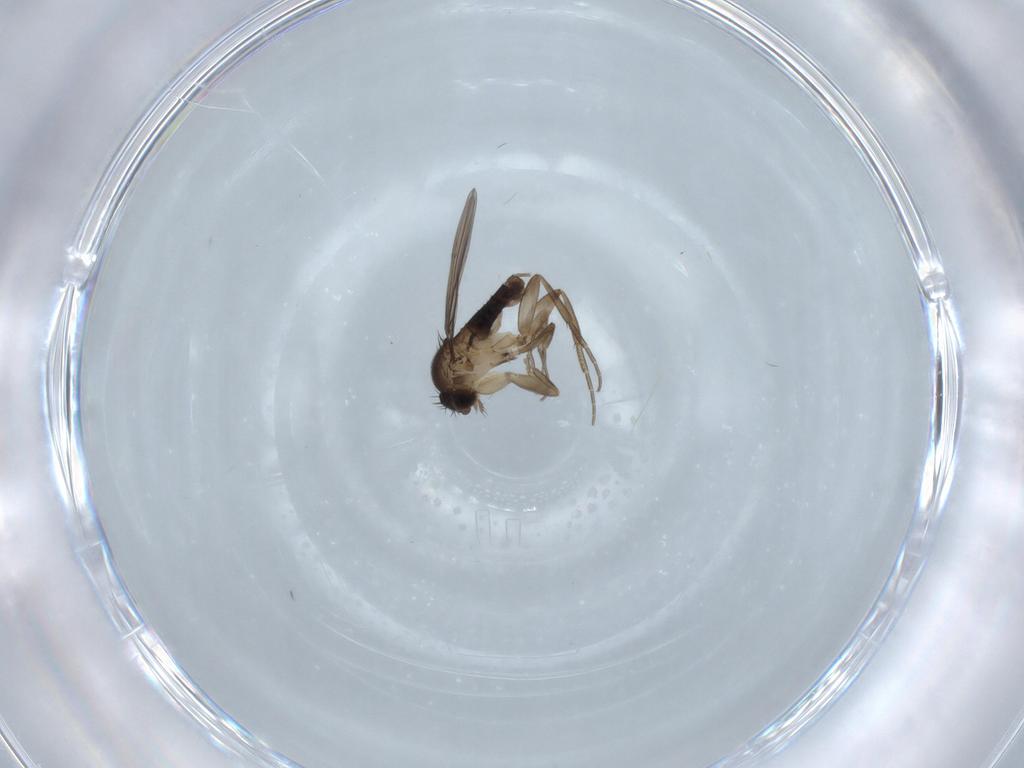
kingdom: Animalia
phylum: Arthropoda
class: Insecta
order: Diptera
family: Phoridae
